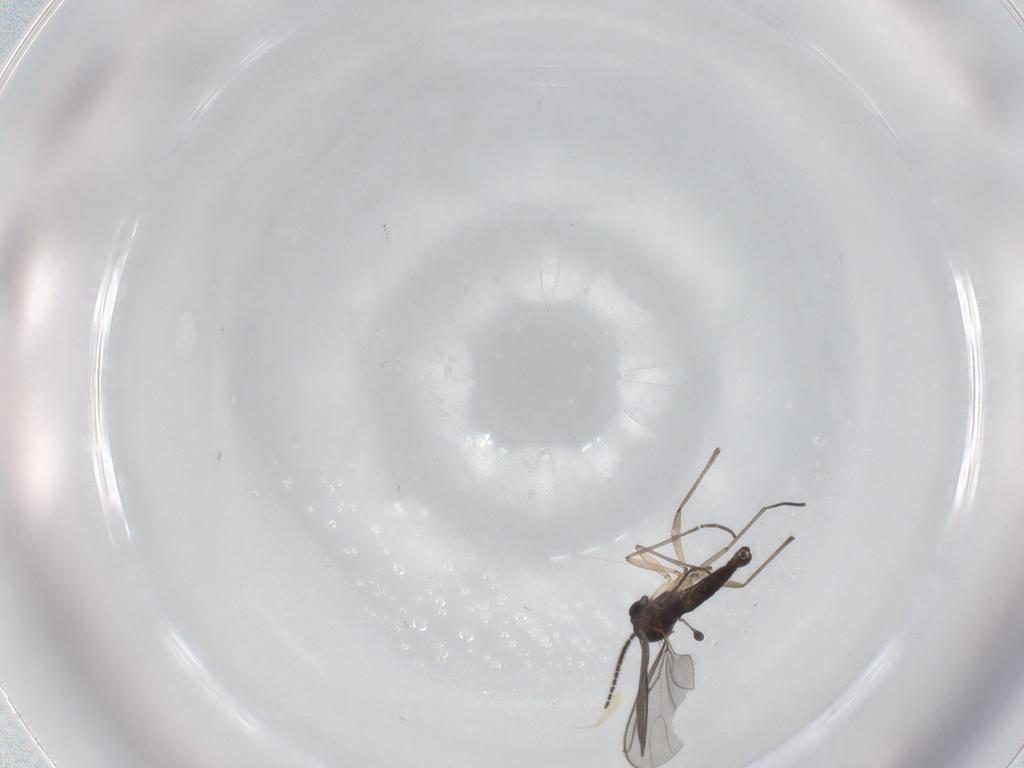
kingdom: Animalia
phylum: Arthropoda
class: Insecta
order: Diptera
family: Sciaridae
